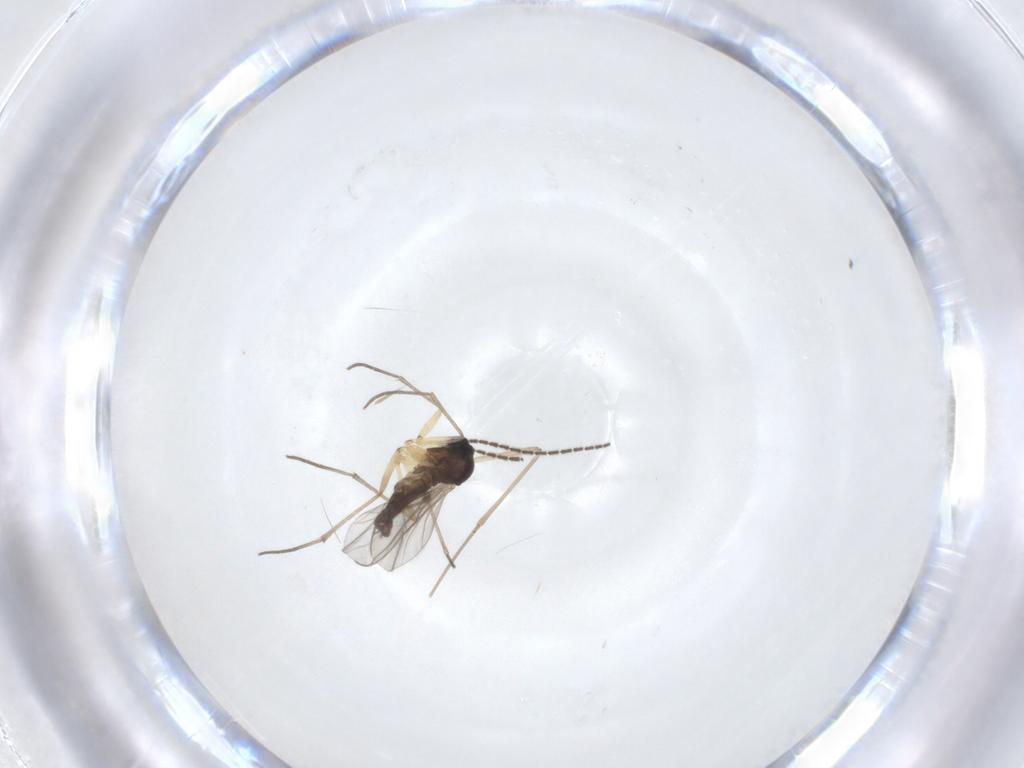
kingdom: Animalia
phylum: Arthropoda
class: Insecta
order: Diptera
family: Sciaridae
